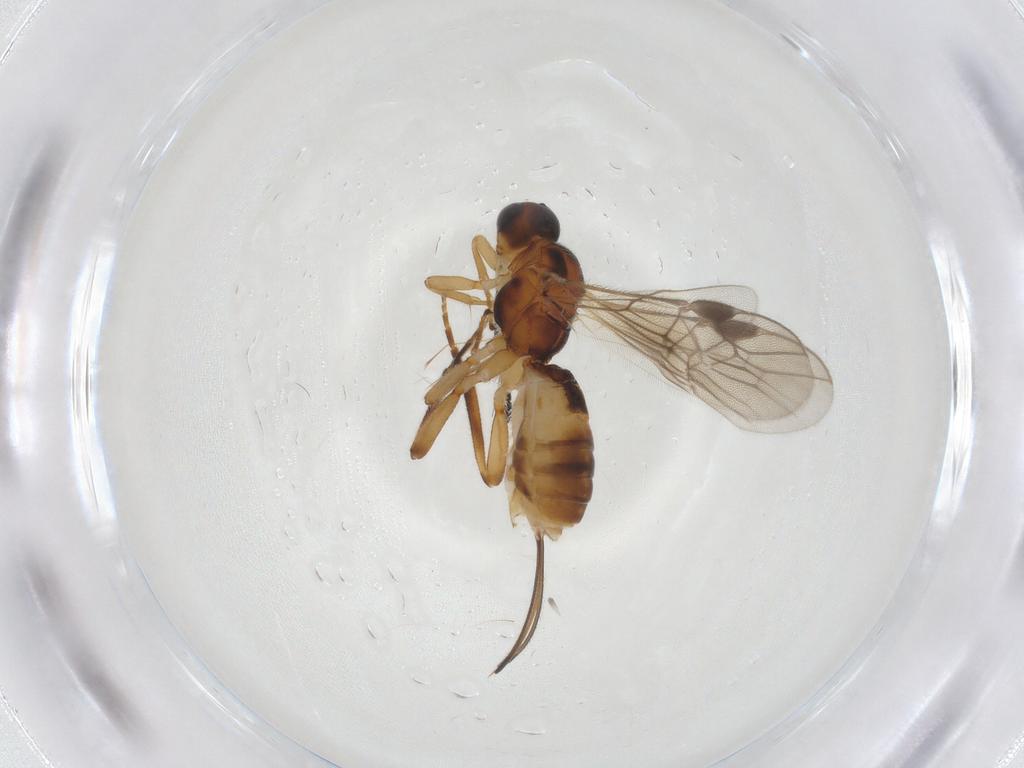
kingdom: Animalia
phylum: Arthropoda
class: Insecta
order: Hymenoptera
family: Braconidae
